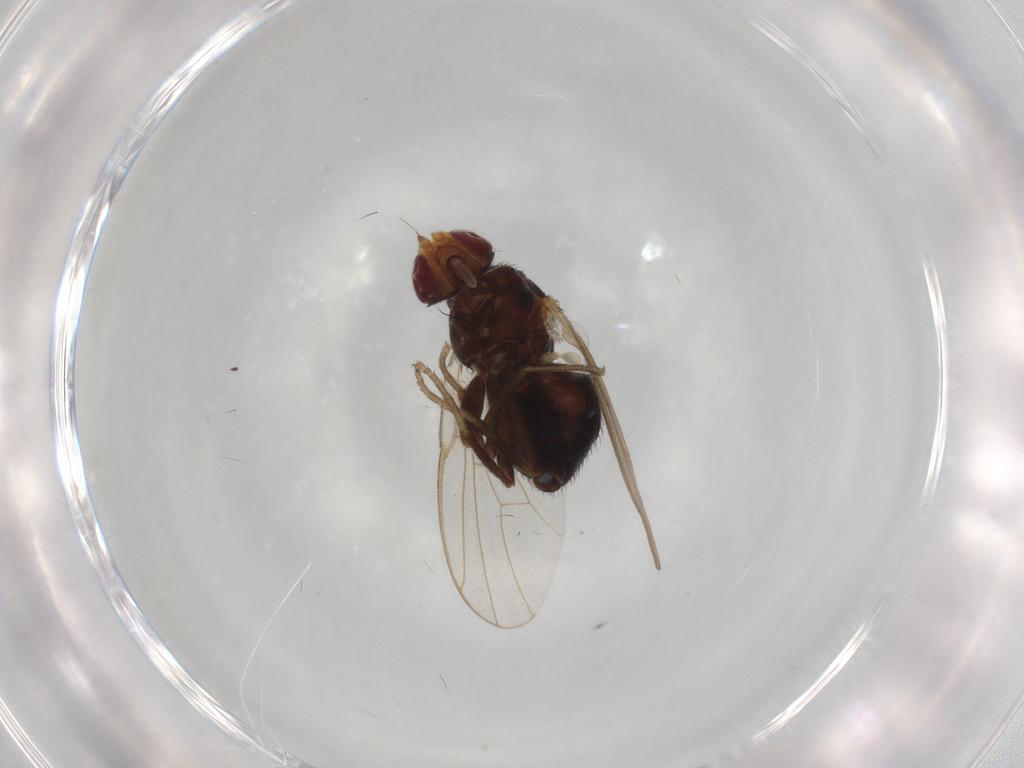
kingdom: Animalia
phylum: Arthropoda
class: Insecta
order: Diptera
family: Agromyzidae
